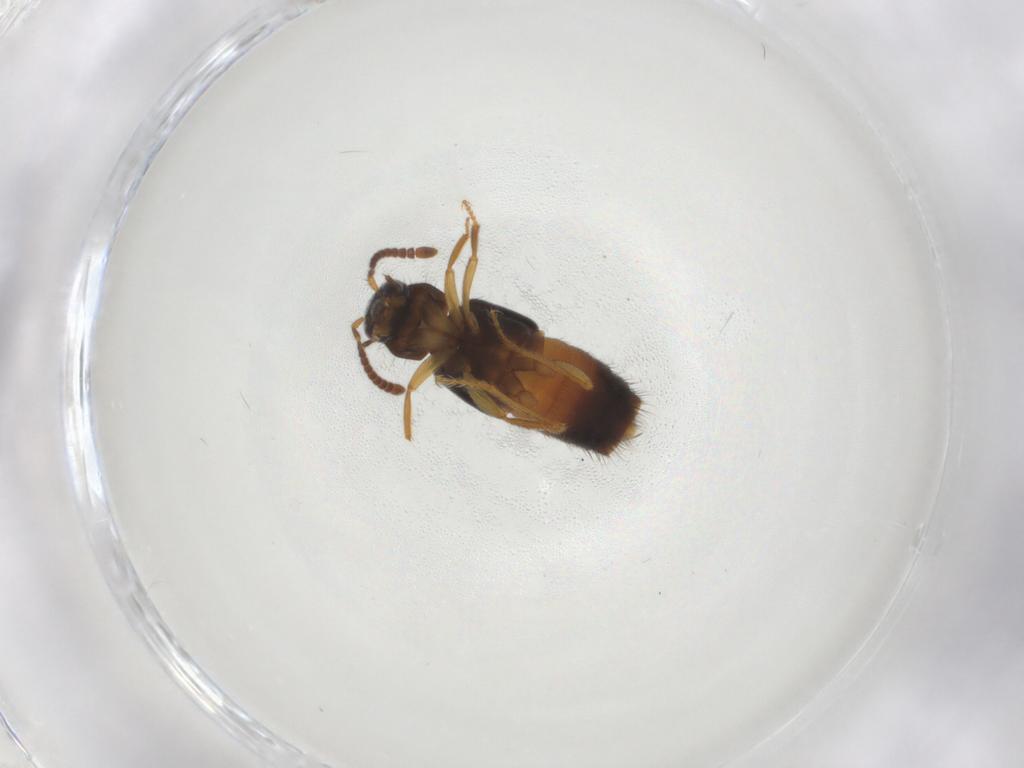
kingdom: Animalia
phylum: Arthropoda
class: Insecta
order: Coleoptera
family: Staphylinidae
